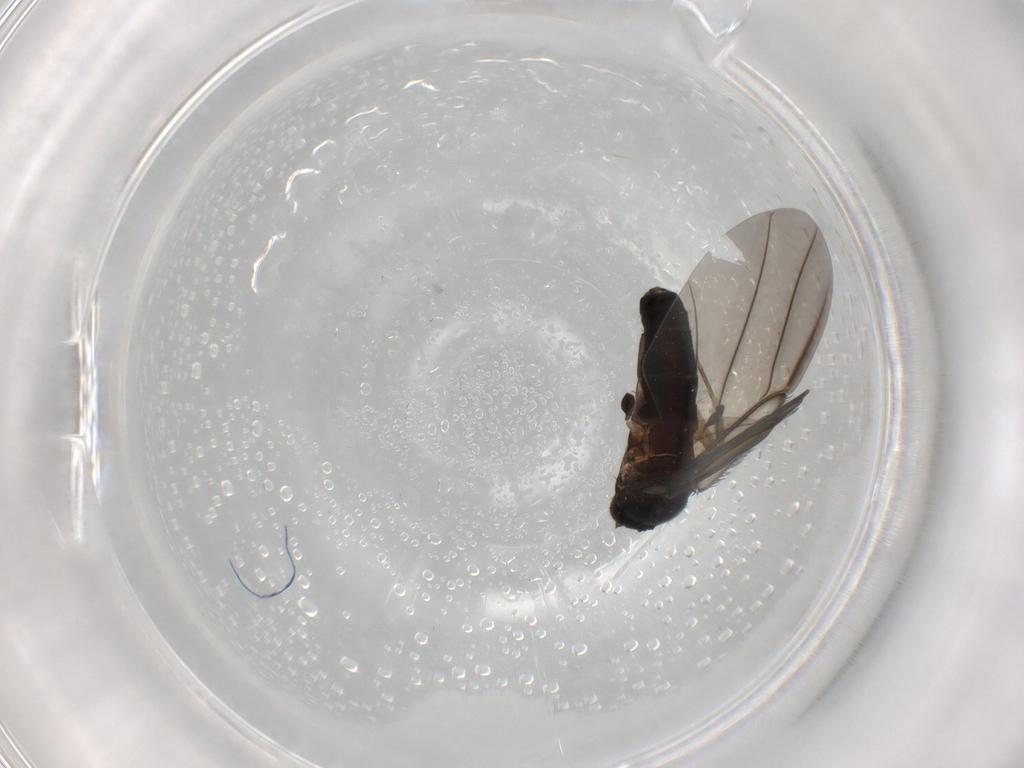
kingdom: Animalia
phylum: Arthropoda
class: Insecta
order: Diptera
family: Phoridae
